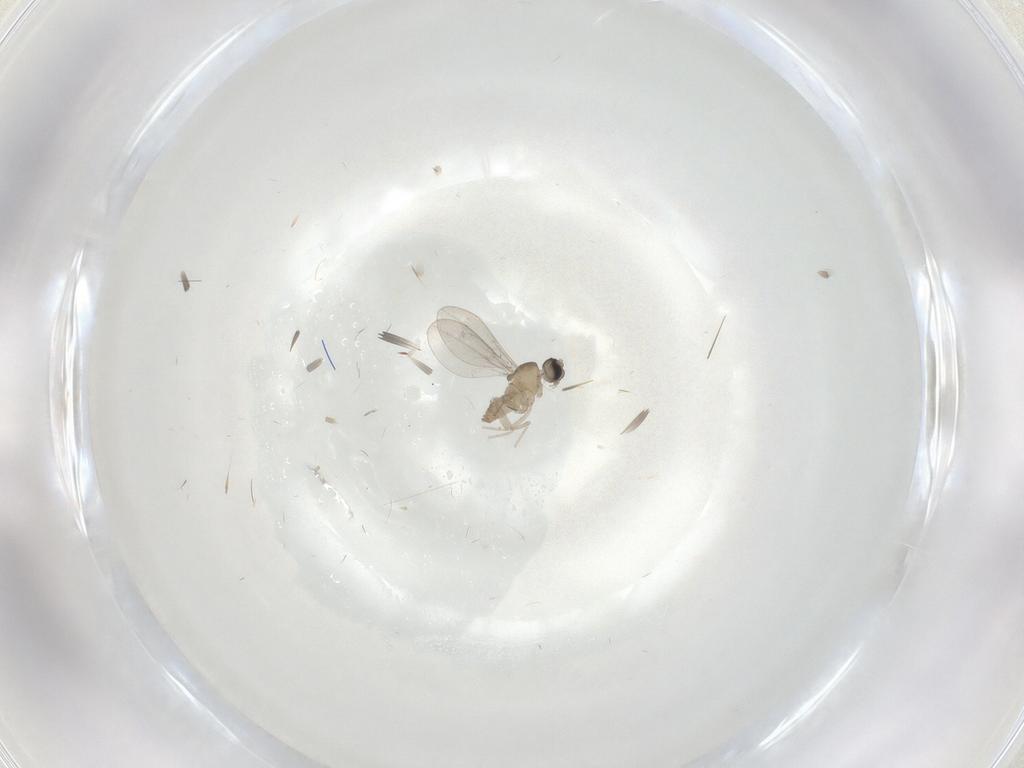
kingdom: Animalia
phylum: Arthropoda
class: Insecta
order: Diptera
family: Cecidomyiidae
